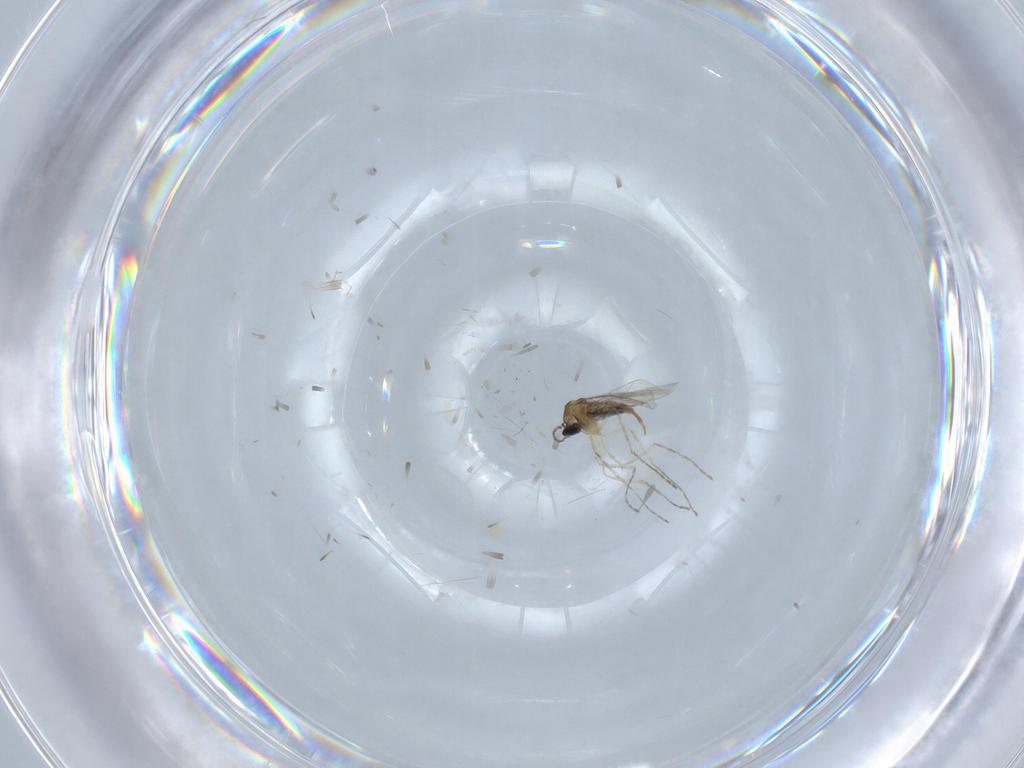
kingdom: Animalia
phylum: Arthropoda
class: Insecta
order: Diptera
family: Cecidomyiidae
